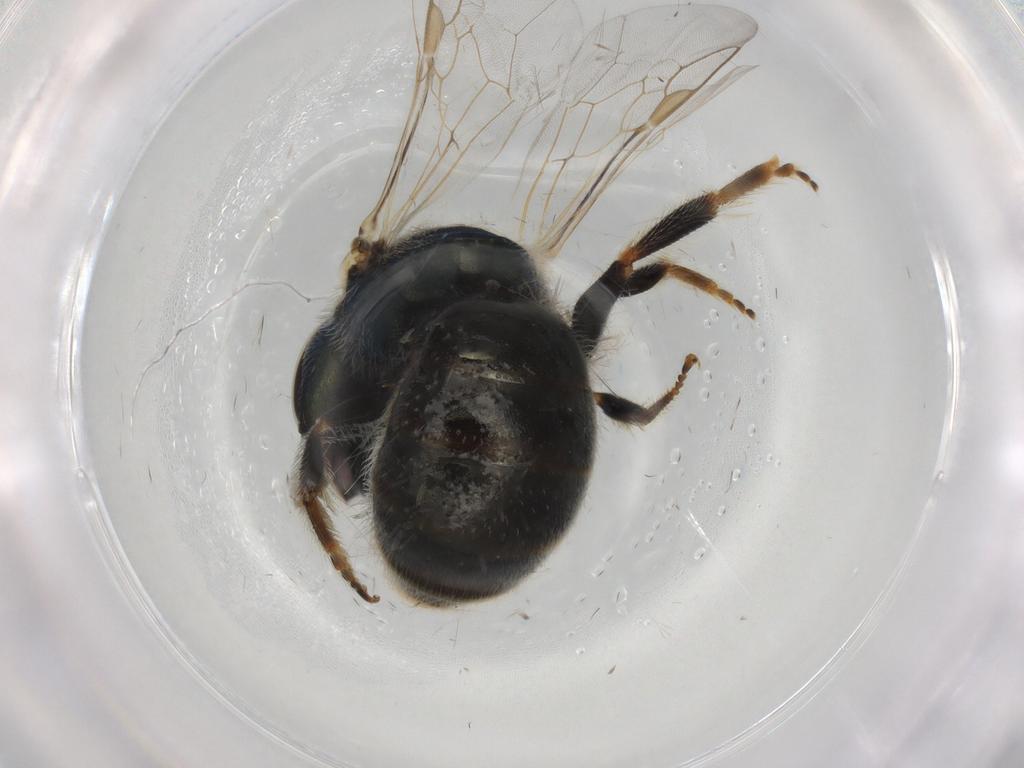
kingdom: Animalia
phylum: Arthropoda
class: Insecta
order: Hymenoptera
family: Halictidae
